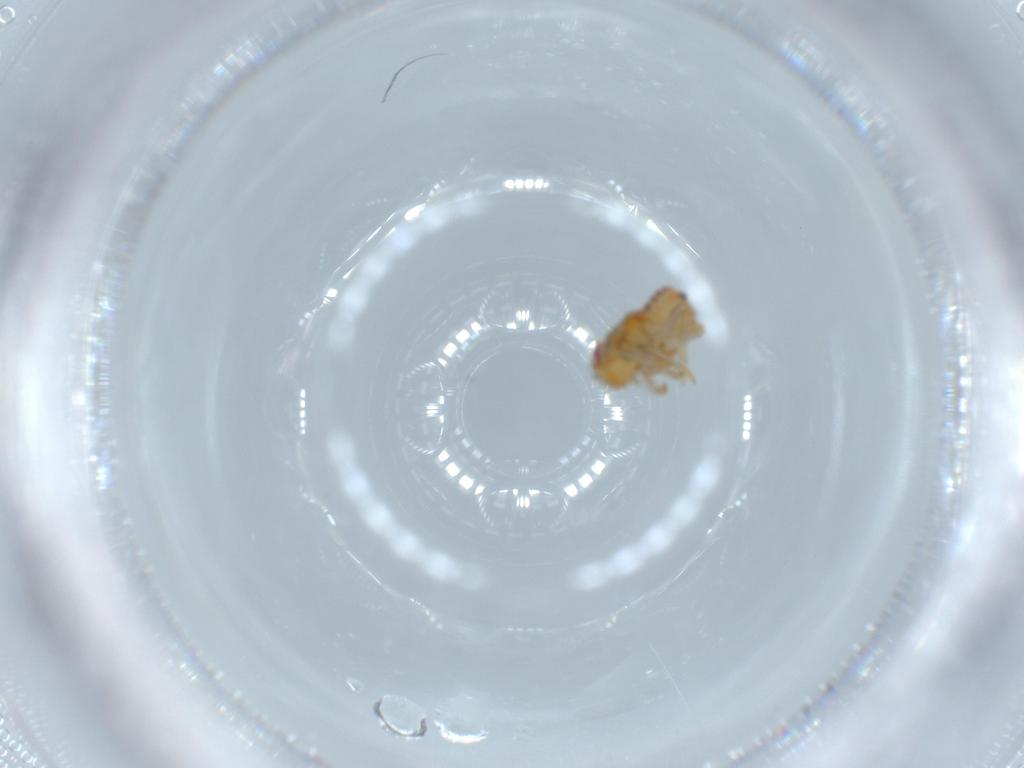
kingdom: Animalia
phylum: Arthropoda
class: Insecta
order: Hemiptera
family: Issidae
